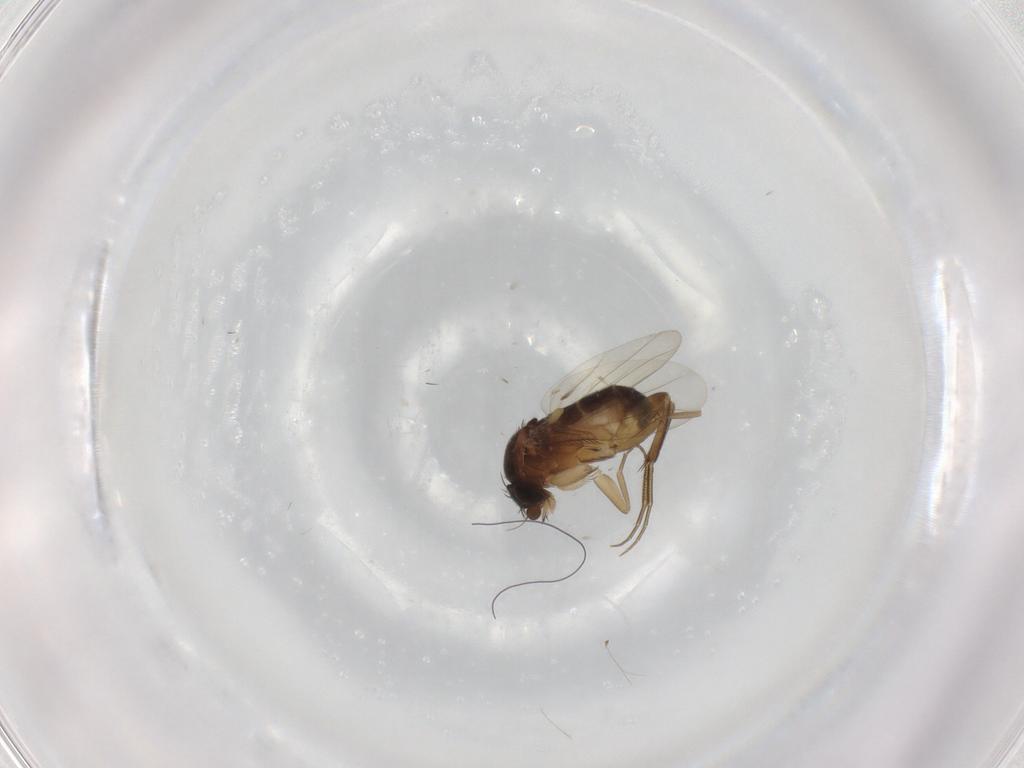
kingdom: Animalia
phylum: Arthropoda
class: Insecta
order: Diptera
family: Phoridae
